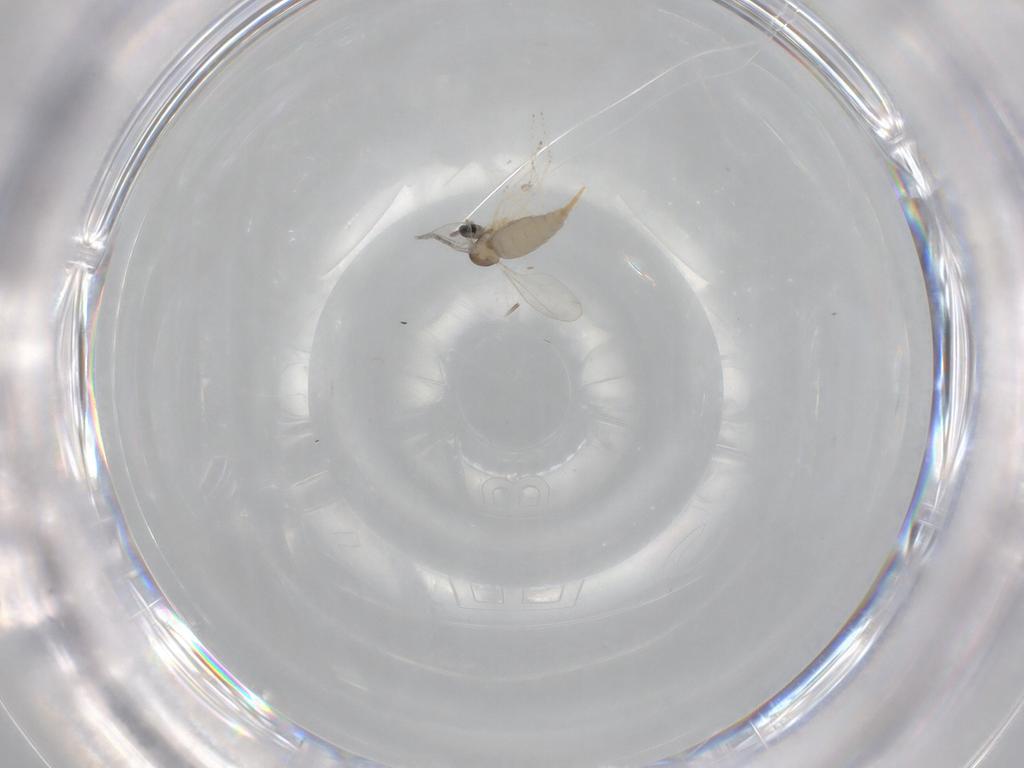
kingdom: Animalia
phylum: Arthropoda
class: Insecta
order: Diptera
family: Cecidomyiidae
